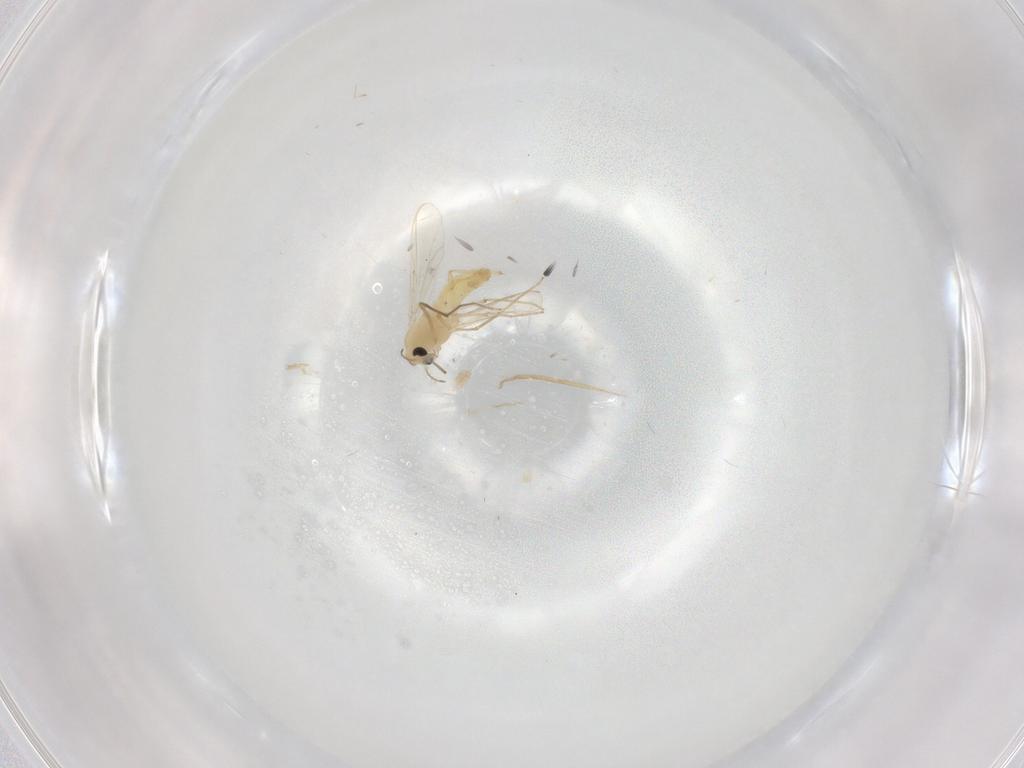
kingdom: Animalia
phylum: Arthropoda
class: Insecta
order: Diptera
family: Chironomidae
